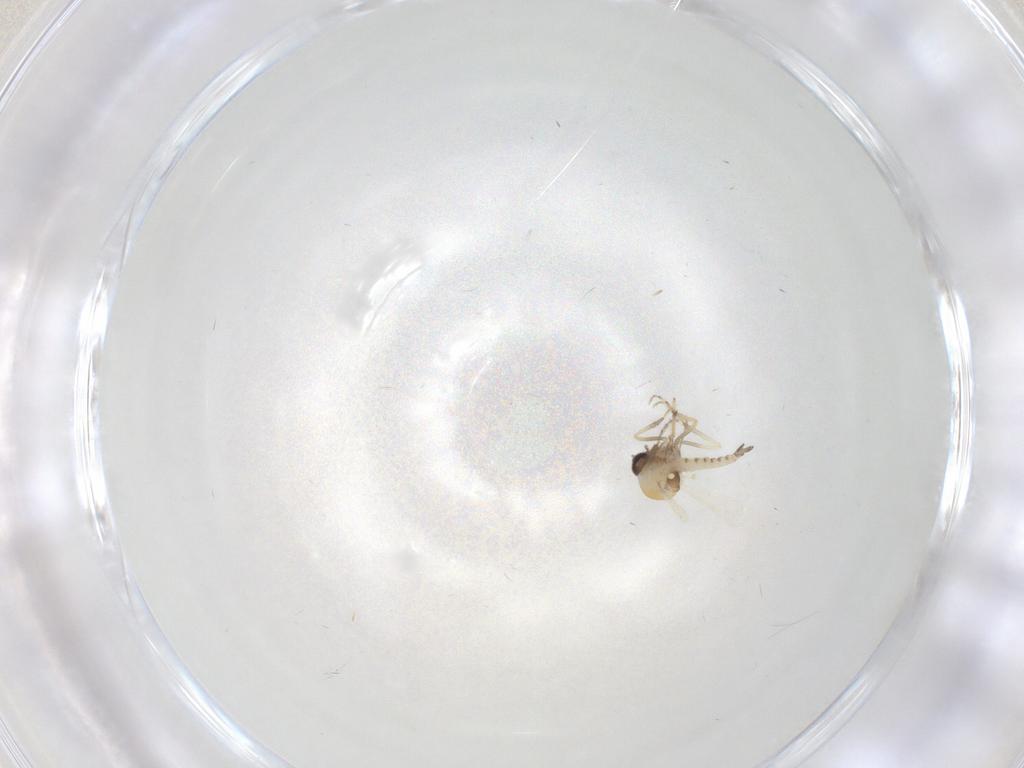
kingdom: Animalia
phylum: Arthropoda
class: Insecta
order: Diptera
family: Ceratopogonidae
